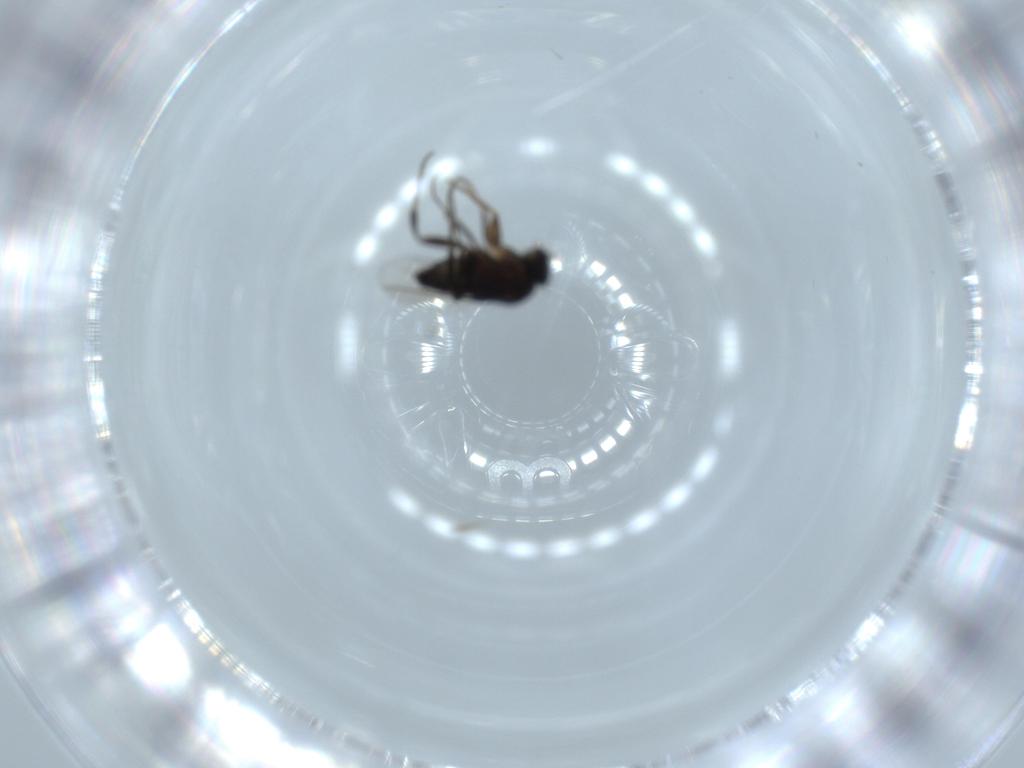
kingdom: Animalia
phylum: Arthropoda
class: Insecta
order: Diptera
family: Phoridae
